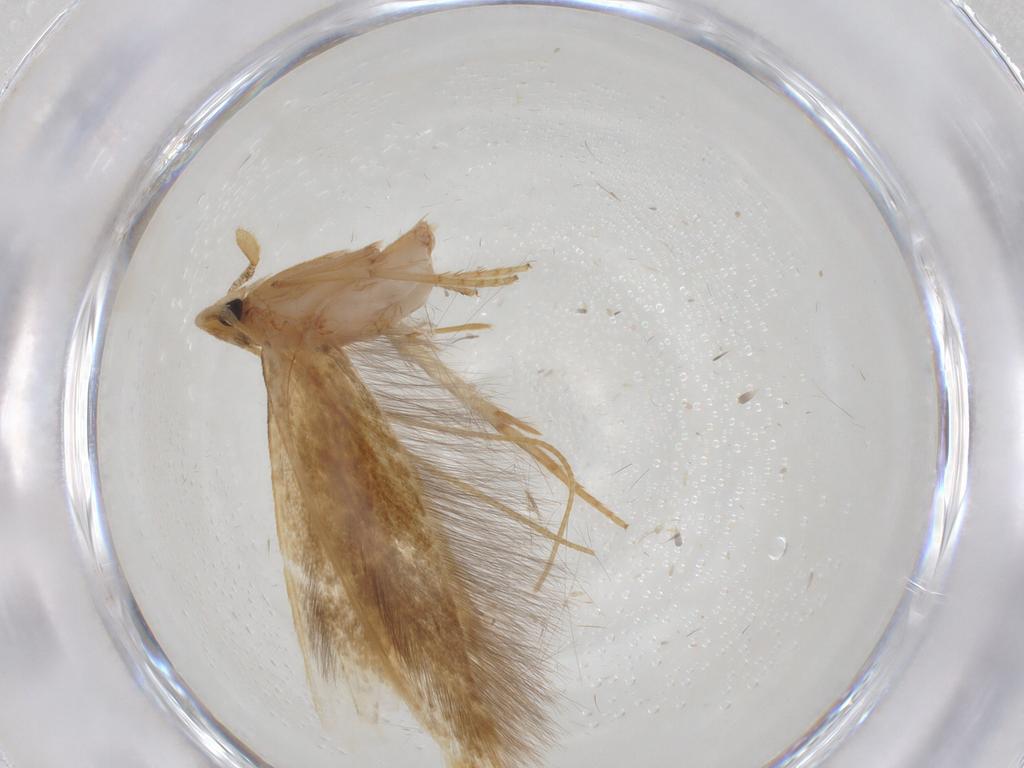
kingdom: Animalia
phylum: Arthropoda
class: Insecta
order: Lepidoptera
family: Tineidae
